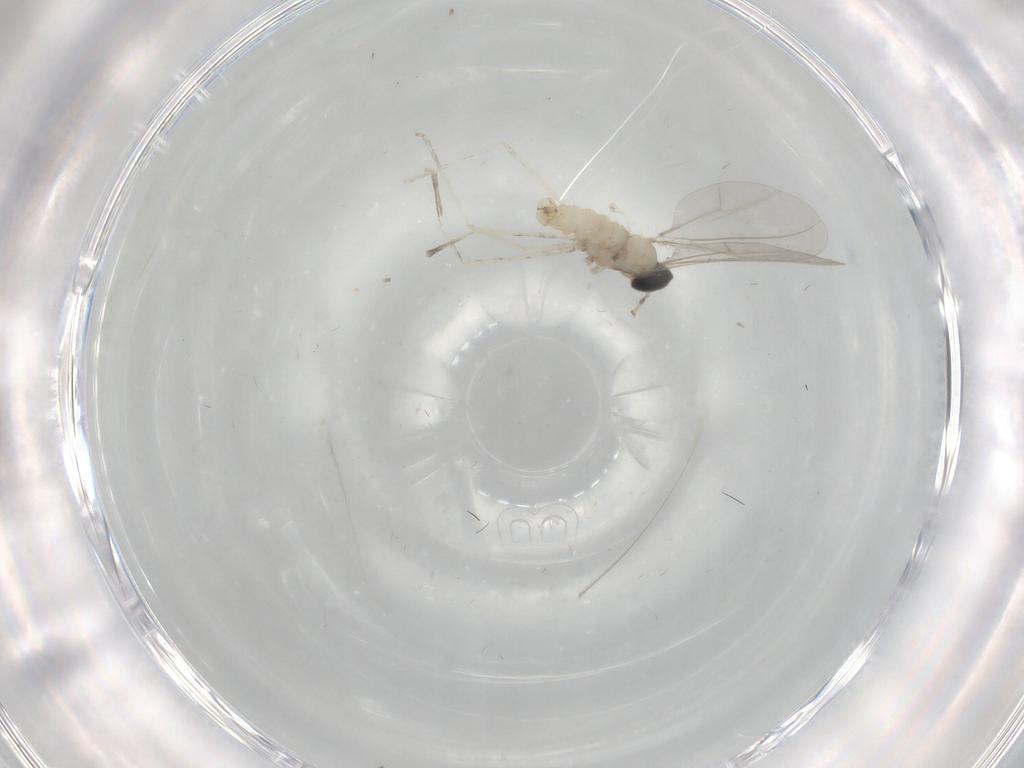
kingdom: Animalia
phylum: Arthropoda
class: Insecta
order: Diptera
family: Cecidomyiidae
